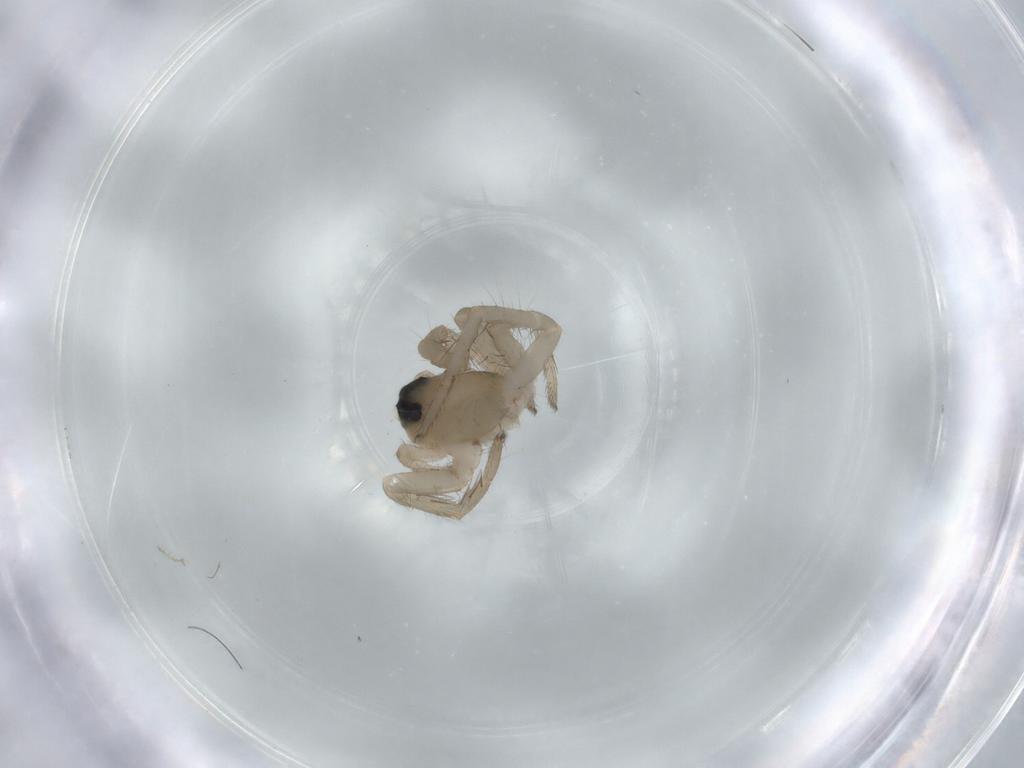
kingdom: Animalia
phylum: Arthropoda
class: Arachnida
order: Araneae
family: Lycosidae
